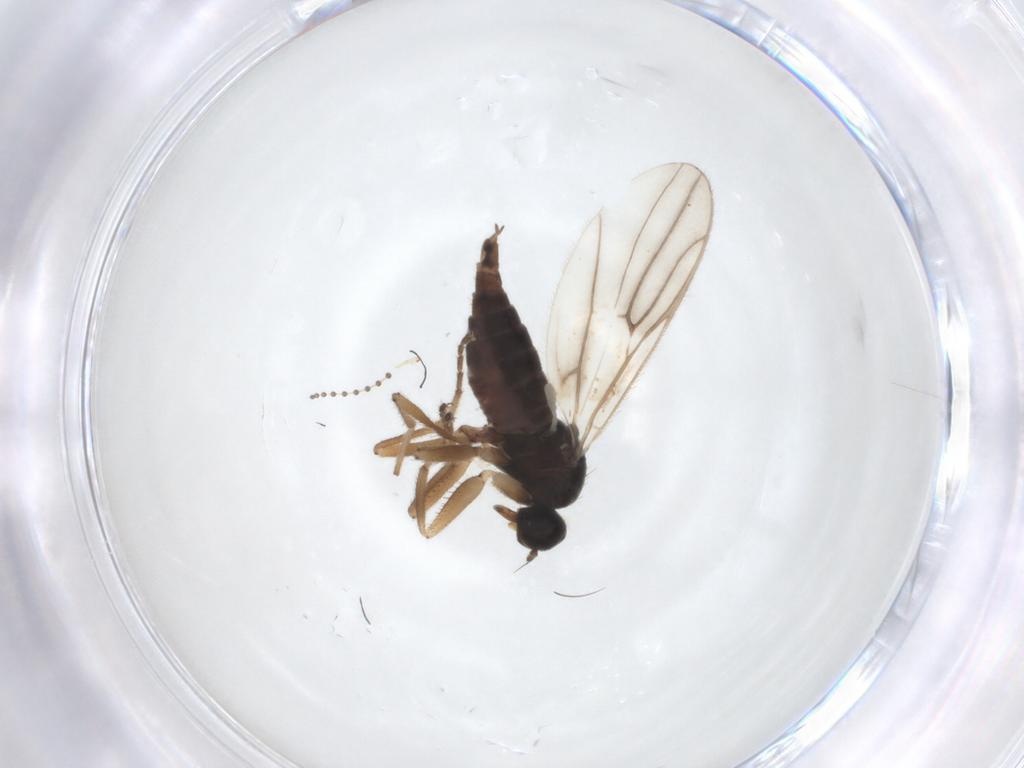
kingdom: Animalia
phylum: Arthropoda
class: Insecta
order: Diptera
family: Hybotidae
